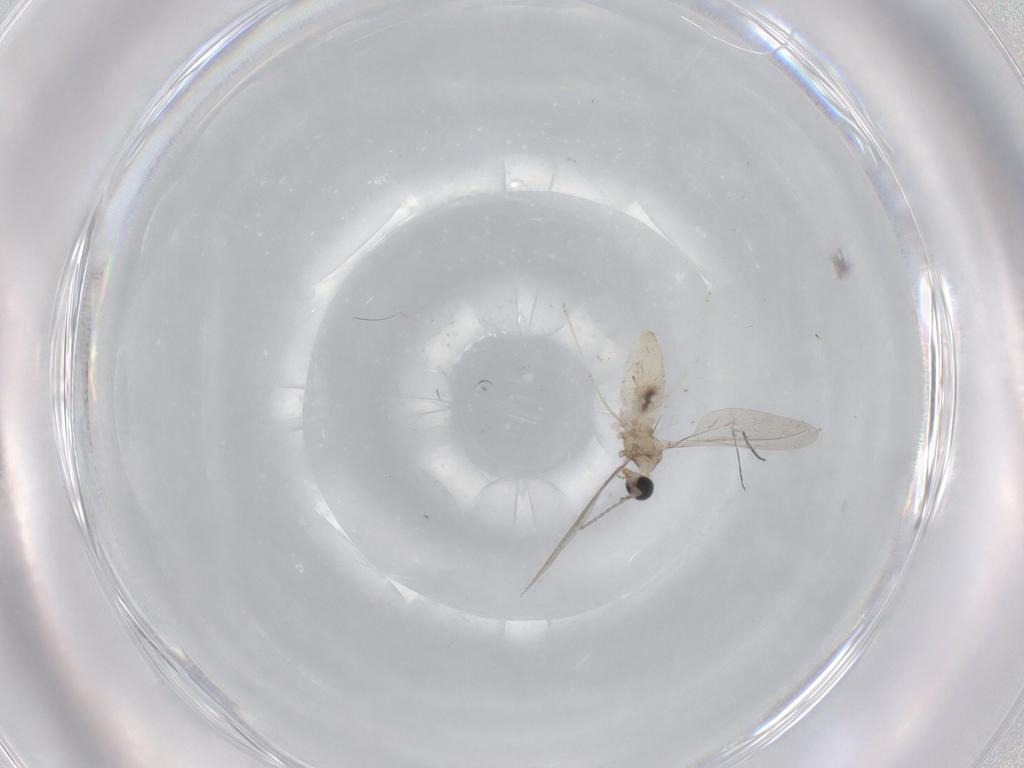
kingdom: Animalia
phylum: Arthropoda
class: Insecta
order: Diptera
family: Cecidomyiidae
